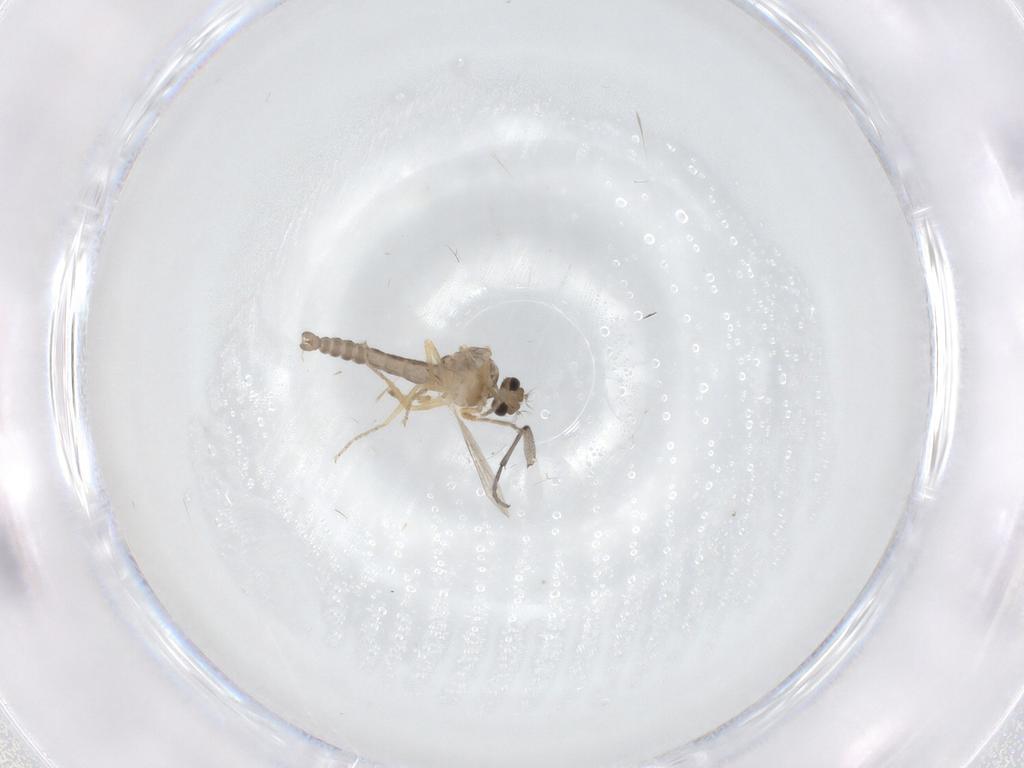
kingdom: Animalia
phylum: Arthropoda
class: Insecta
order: Diptera
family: Ceratopogonidae
